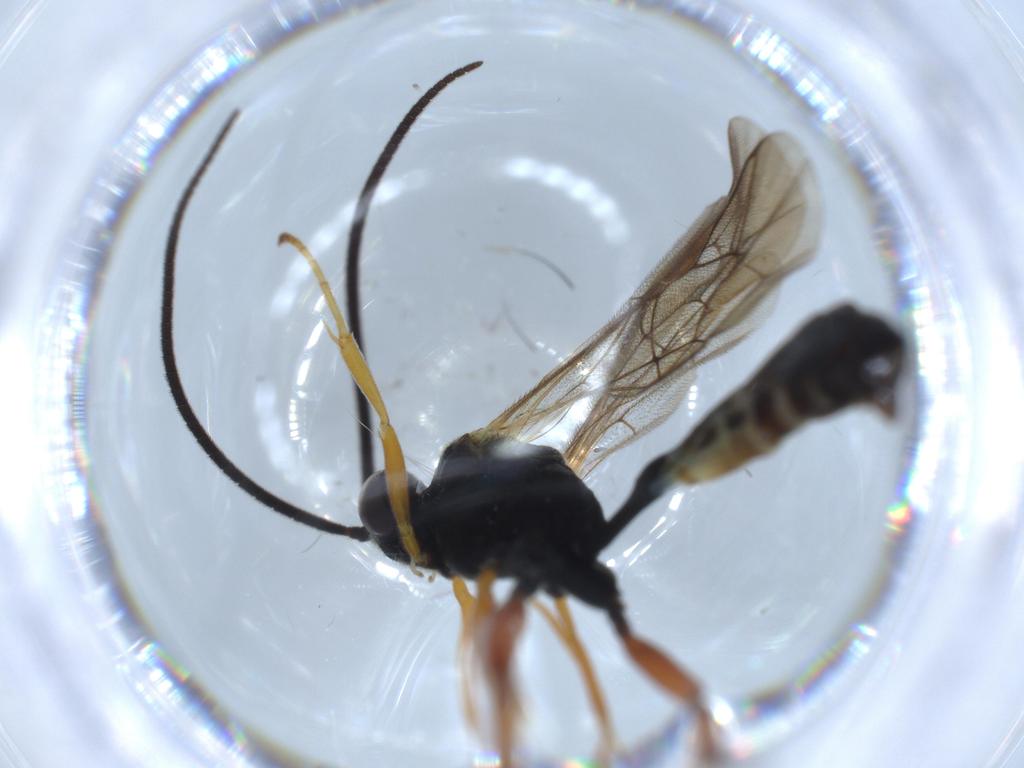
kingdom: Animalia
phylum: Arthropoda
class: Insecta
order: Hymenoptera
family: Ichneumonidae
